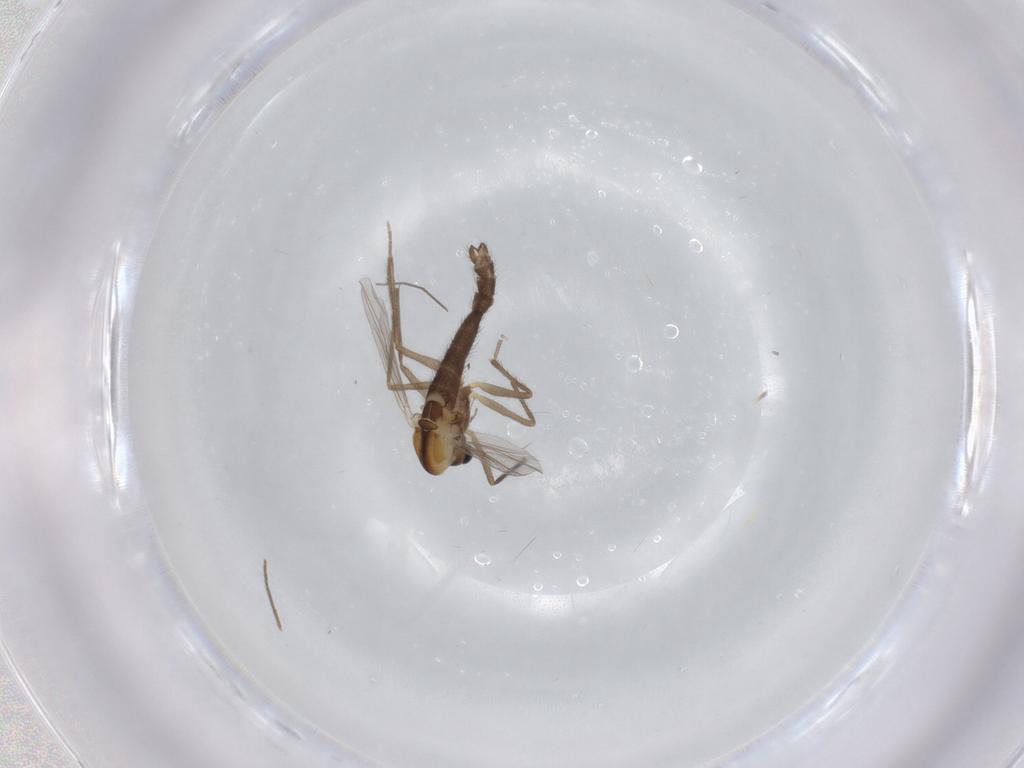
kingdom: Animalia
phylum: Arthropoda
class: Insecta
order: Diptera
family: Chironomidae
